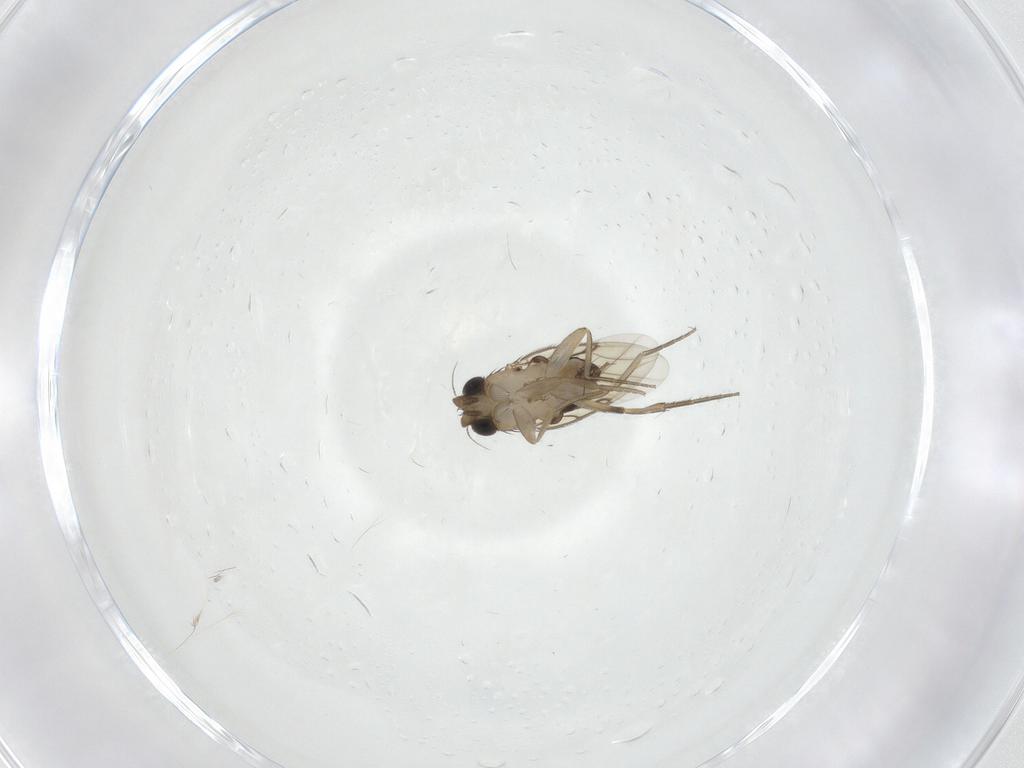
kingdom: Animalia
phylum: Arthropoda
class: Insecta
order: Diptera
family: Phoridae
